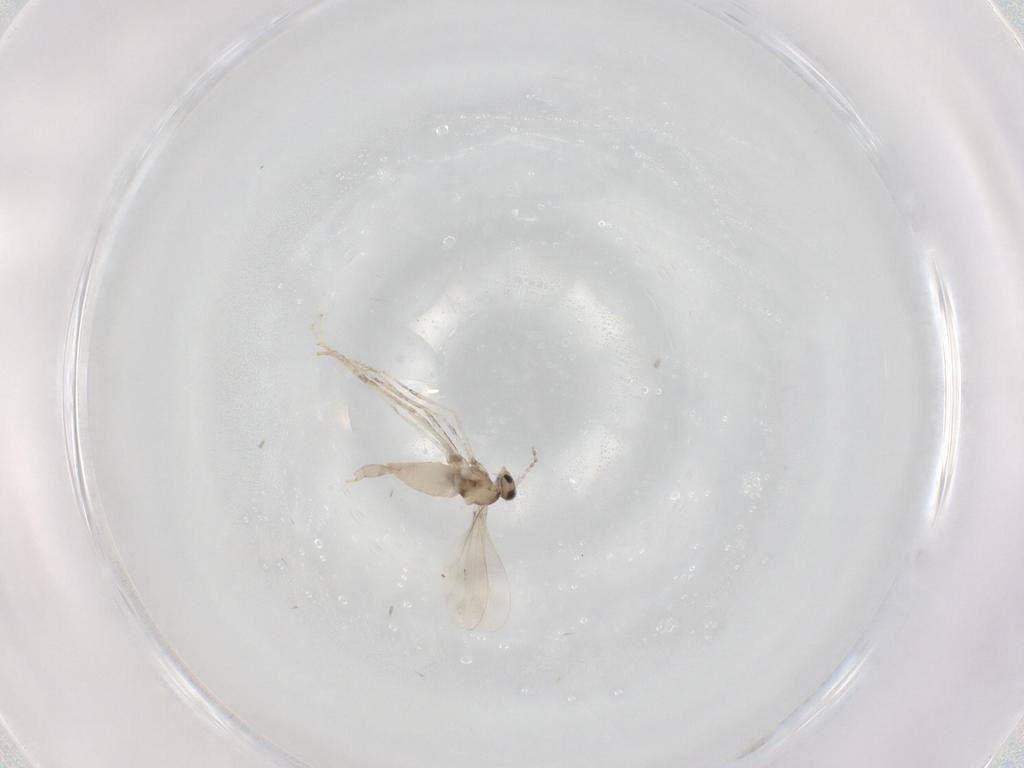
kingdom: Animalia
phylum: Arthropoda
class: Insecta
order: Diptera
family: Cecidomyiidae
